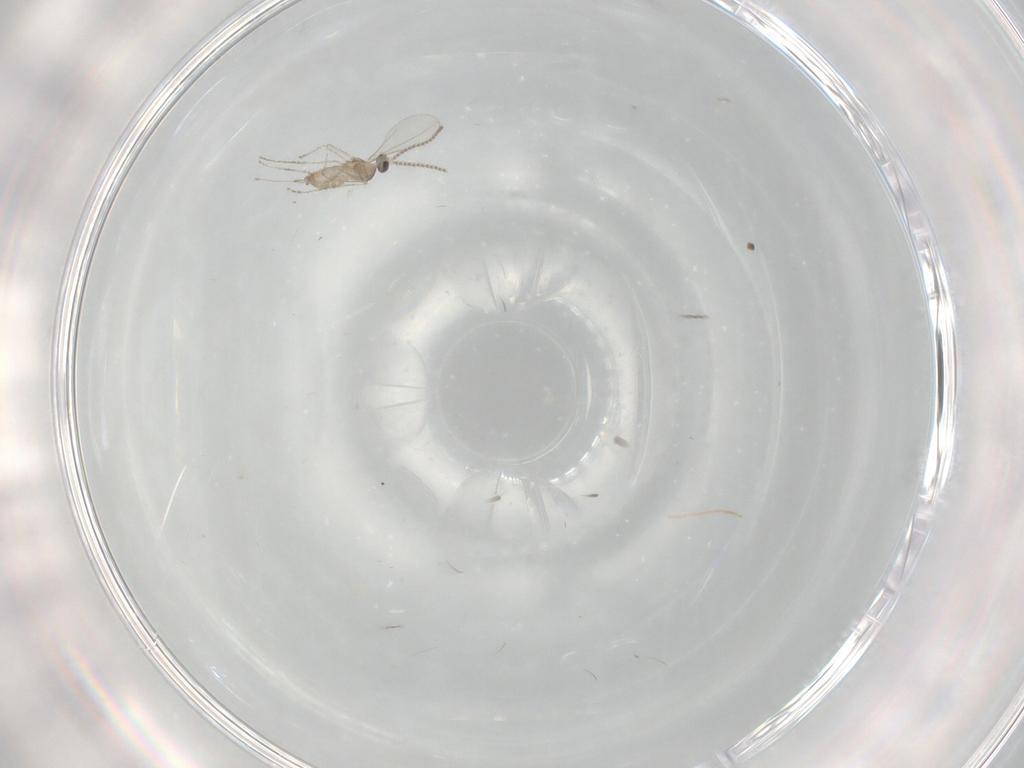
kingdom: Animalia
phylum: Arthropoda
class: Insecta
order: Diptera
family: Cecidomyiidae
